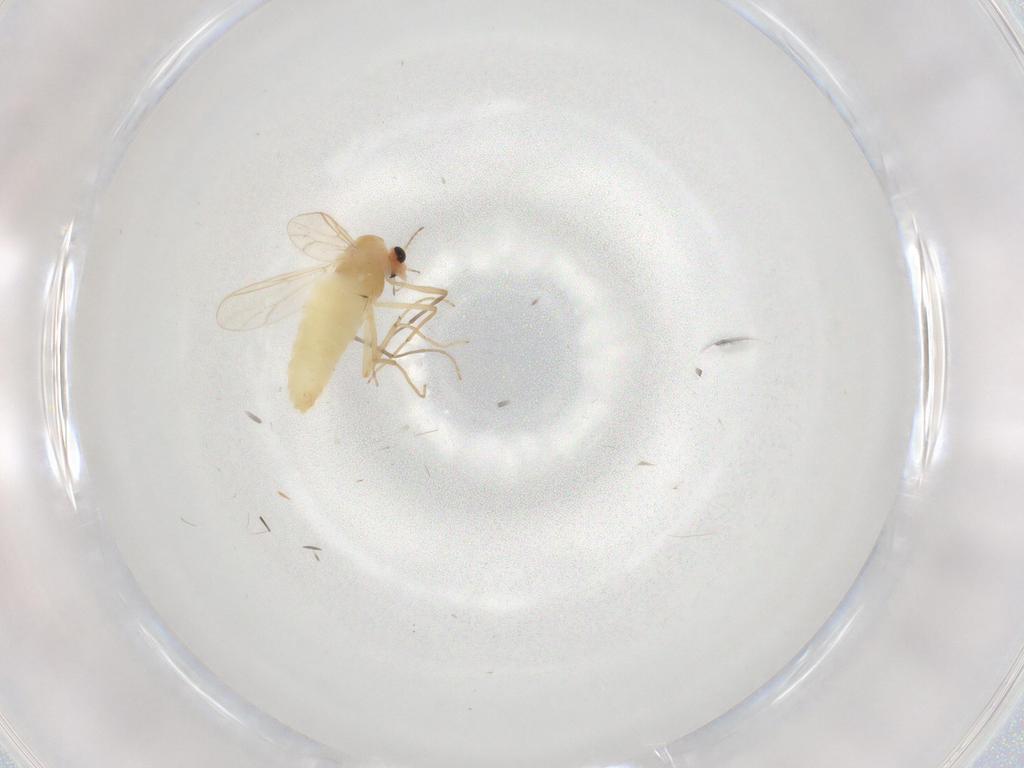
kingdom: Animalia
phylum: Arthropoda
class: Insecta
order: Diptera
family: Chironomidae
